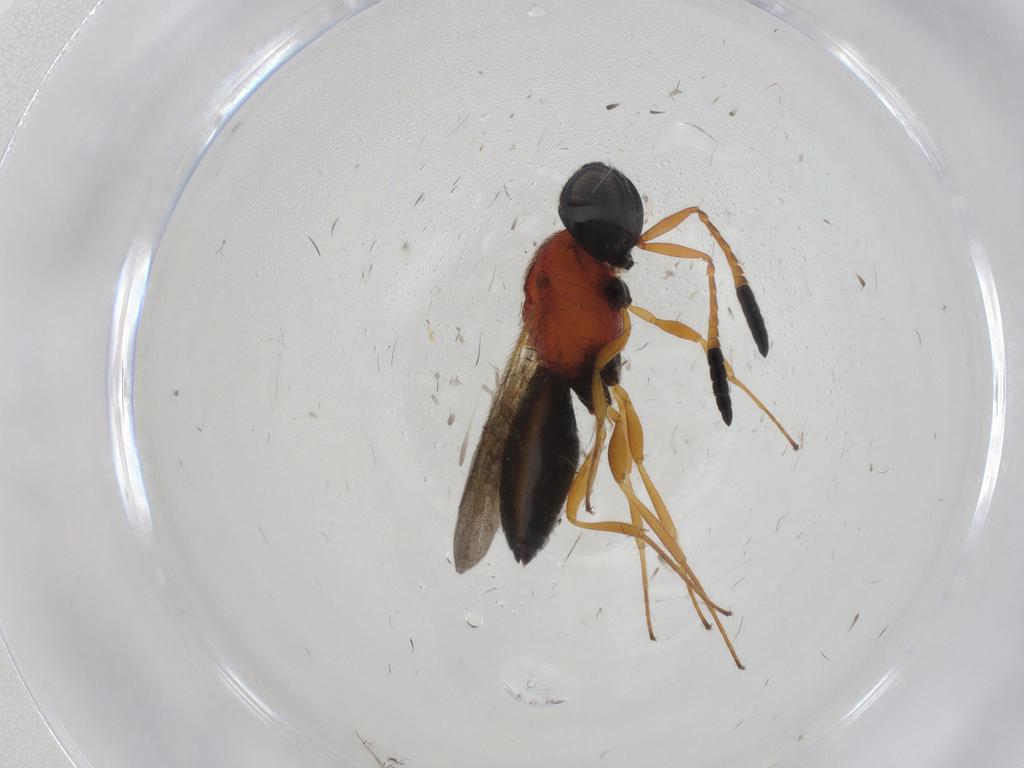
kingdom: Animalia
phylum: Arthropoda
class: Insecta
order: Hymenoptera
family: Scelionidae
